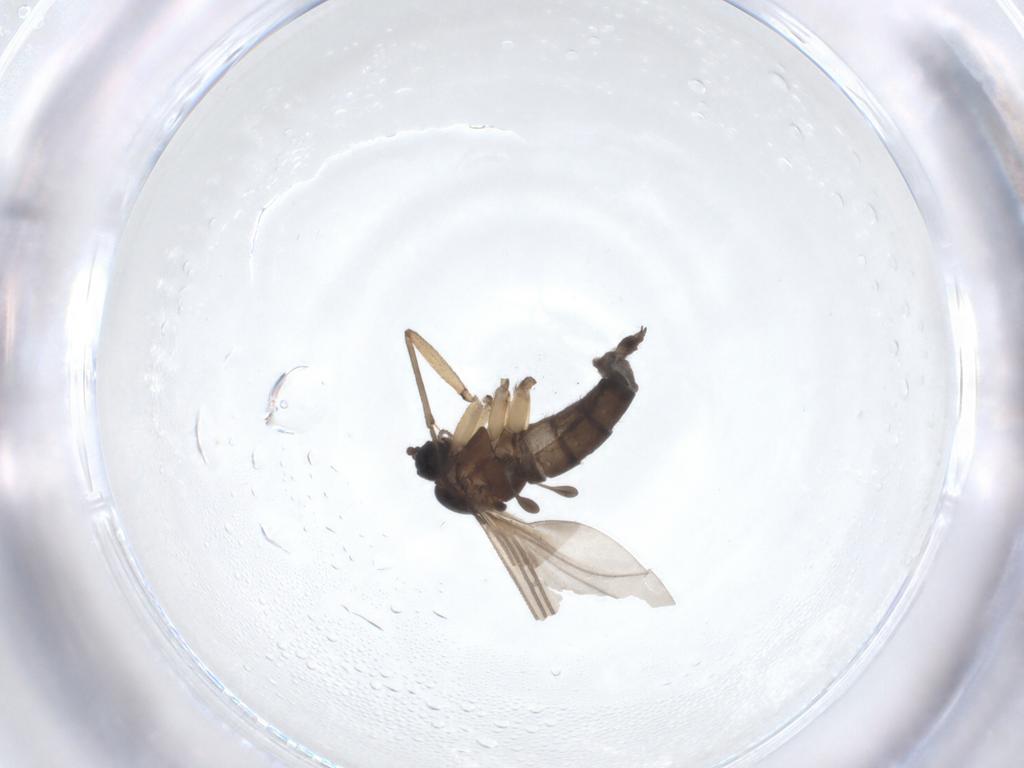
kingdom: Animalia
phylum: Arthropoda
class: Insecta
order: Diptera
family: Sciaridae
